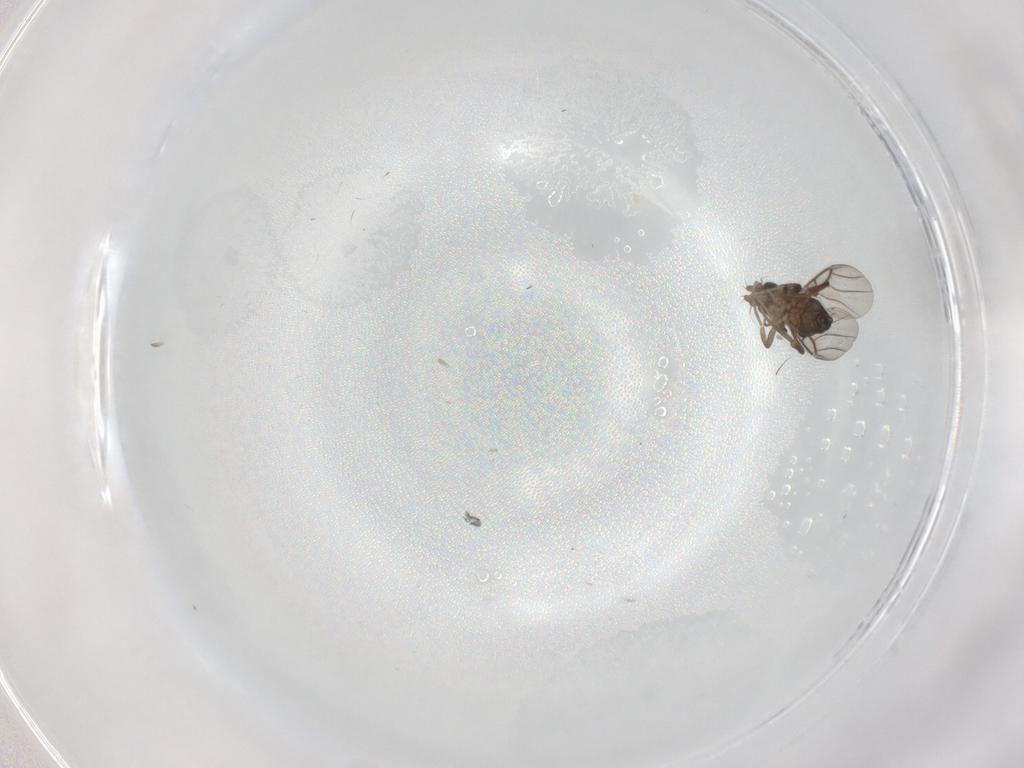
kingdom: Animalia
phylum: Arthropoda
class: Insecta
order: Diptera
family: Phoridae
